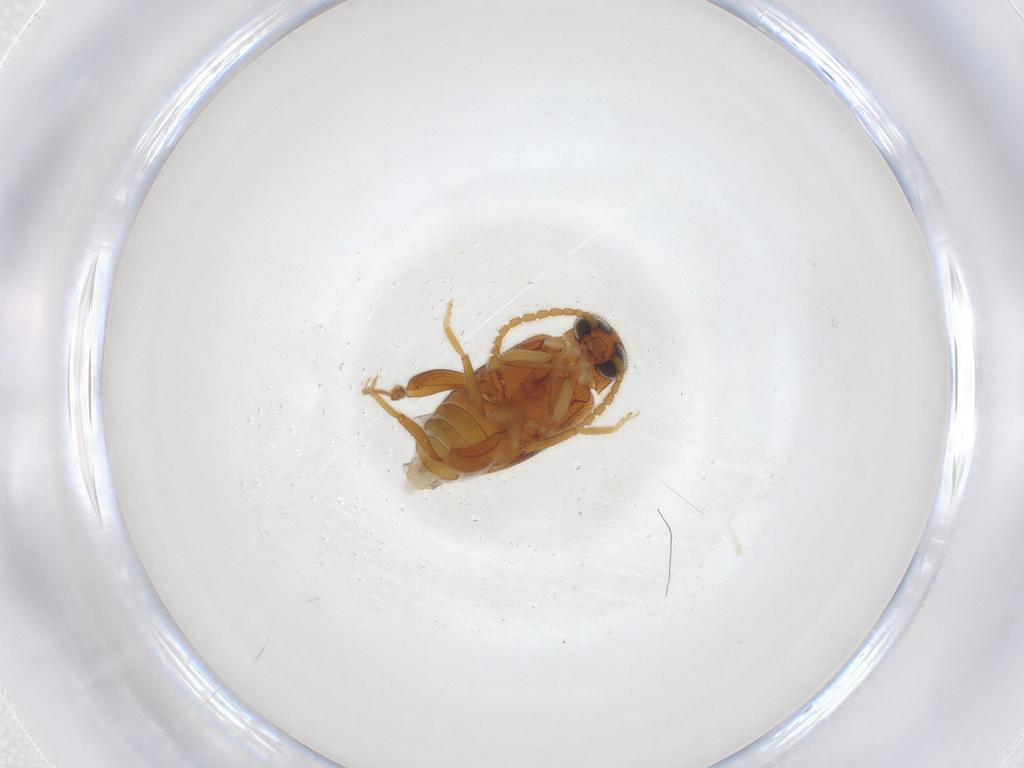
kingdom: Animalia
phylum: Arthropoda
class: Insecta
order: Coleoptera
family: Aderidae
